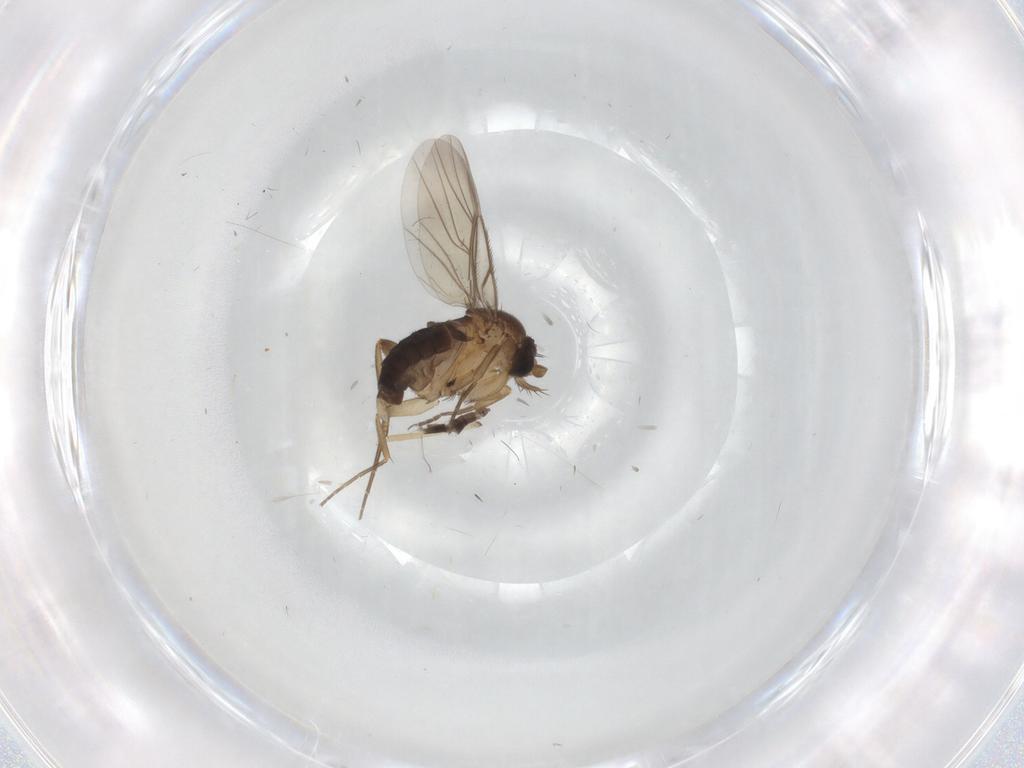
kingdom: Animalia
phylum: Arthropoda
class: Insecta
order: Diptera
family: Phoridae
